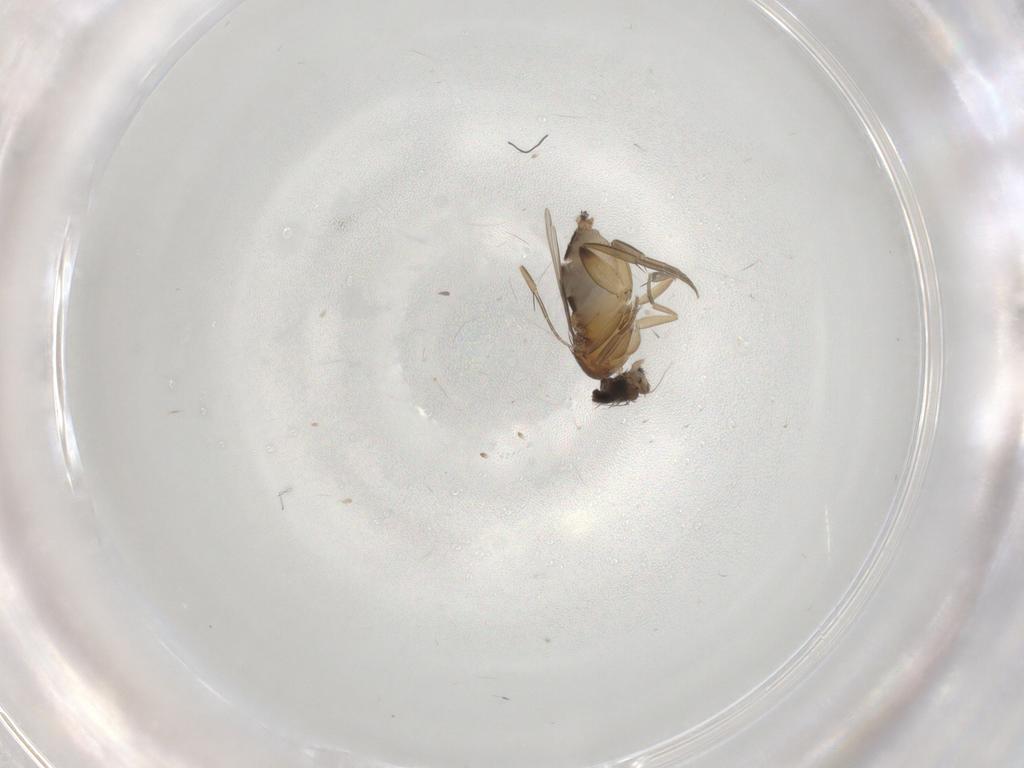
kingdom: Animalia
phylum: Arthropoda
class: Insecta
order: Diptera
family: Phoridae
